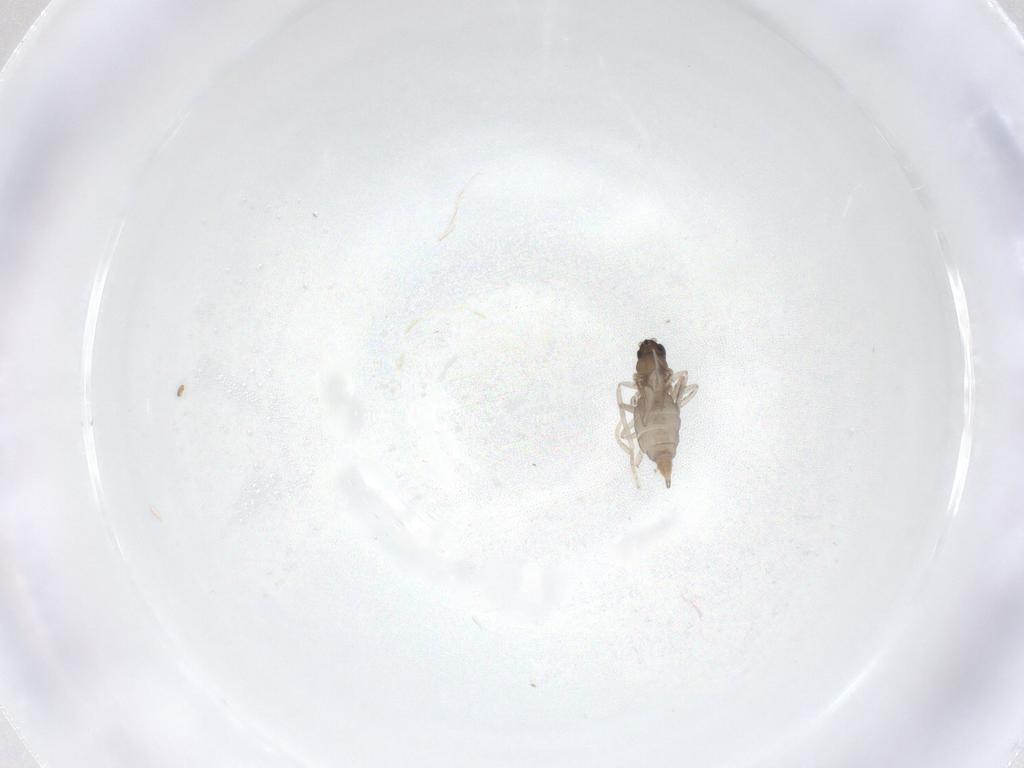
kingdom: Animalia
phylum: Arthropoda
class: Insecta
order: Diptera
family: Cecidomyiidae
